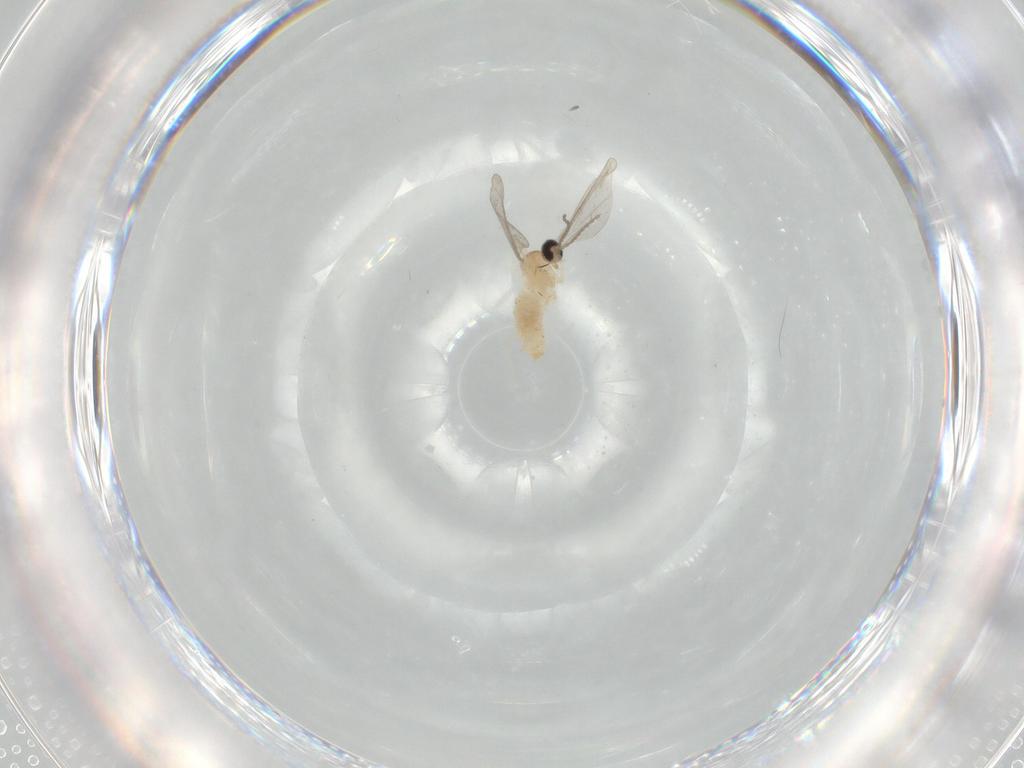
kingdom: Animalia
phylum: Arthropoda
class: Insecta
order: Diptera
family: Cecidomyiidae
